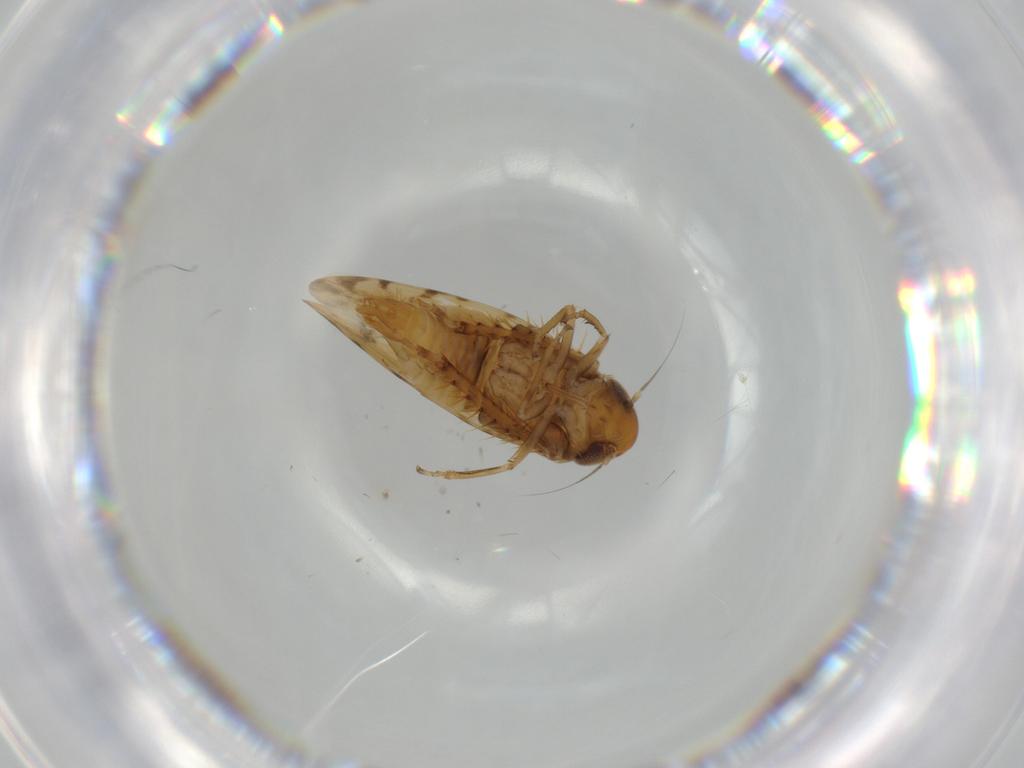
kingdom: Animalia
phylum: Arthropoda
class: Insecta
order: Hemiptera
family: Cicadellidae
